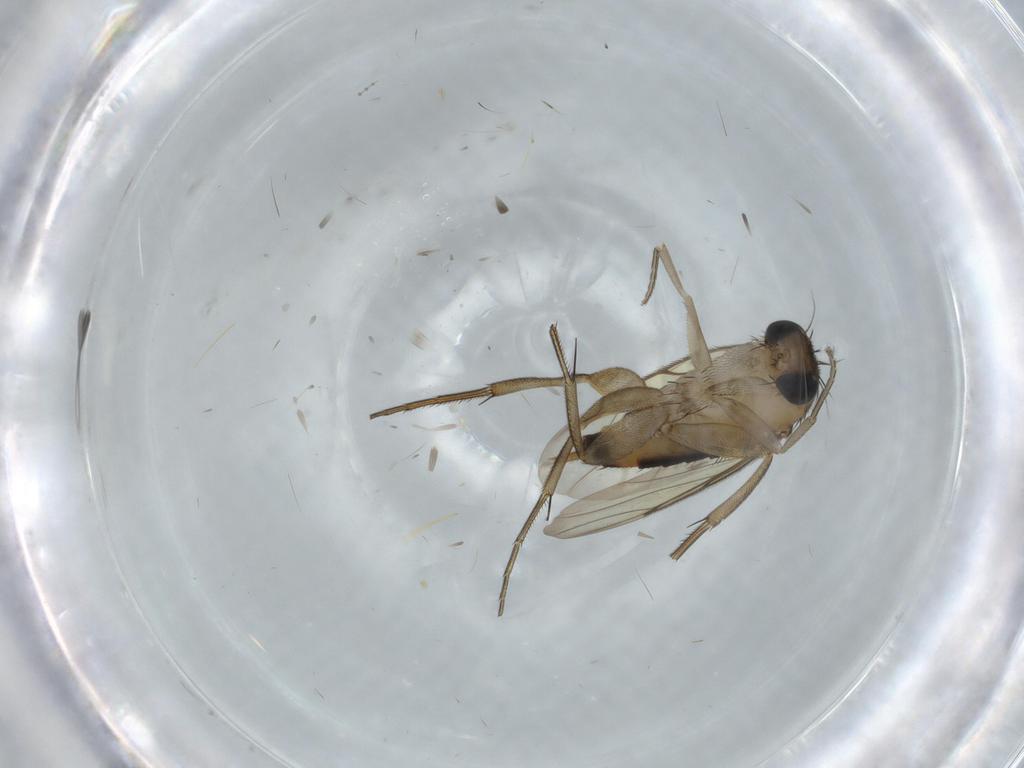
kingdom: Animalia
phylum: Arthropoda
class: Insecta
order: Diptera
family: Cecidomyiidae
